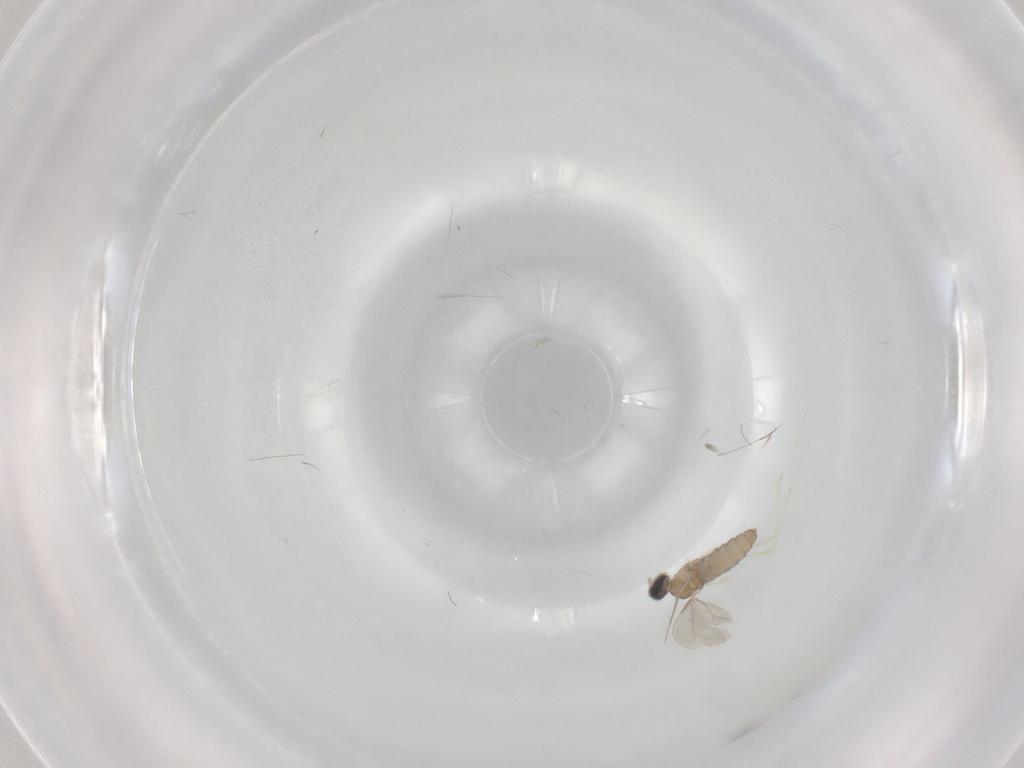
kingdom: Animalia
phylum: Arthropoda
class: Insecta
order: Diptera
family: Cecidomyiidae
